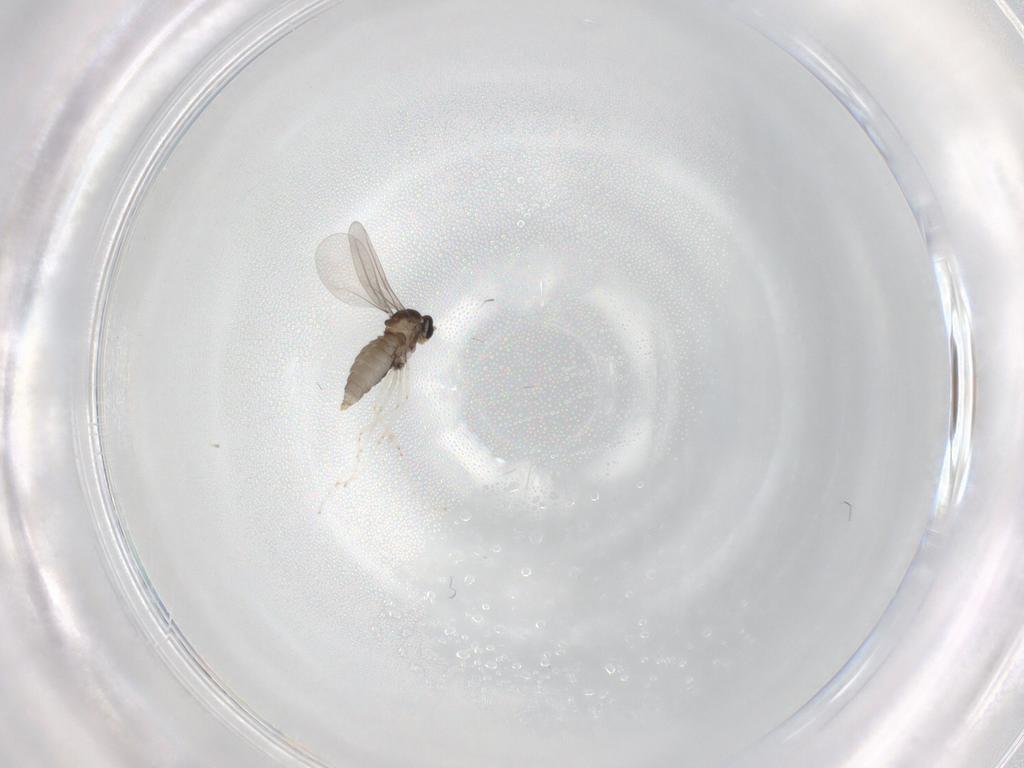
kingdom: Animalia
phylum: Arthropoda
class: Insecta
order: Diptera
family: Cecidomyiidae
